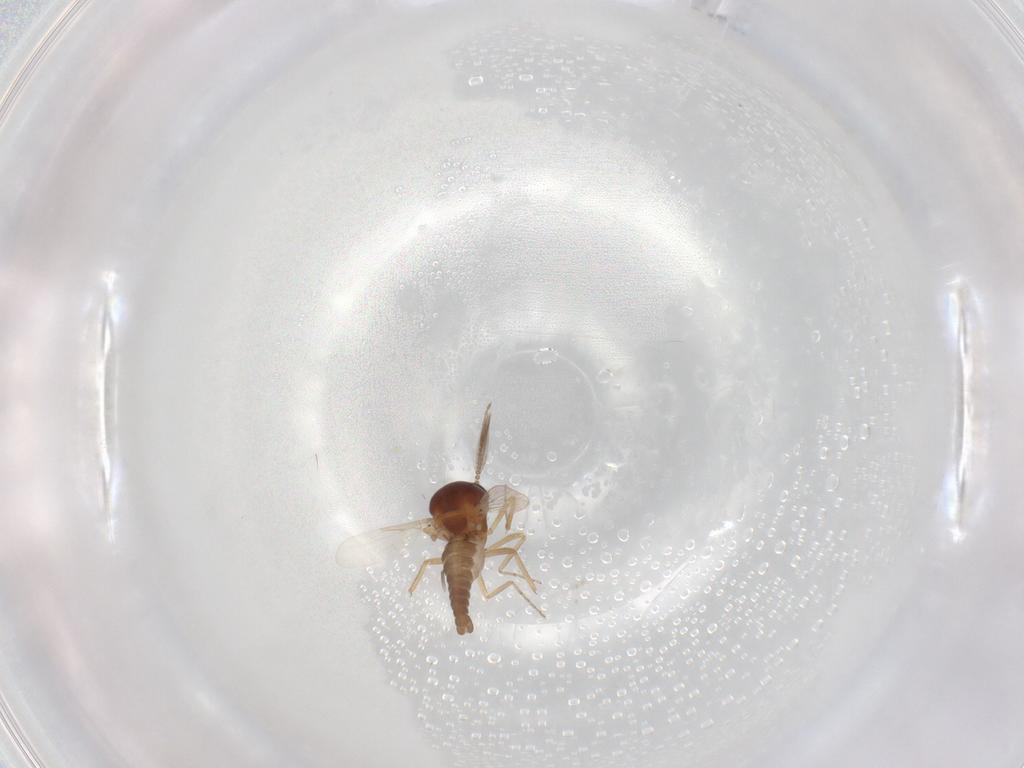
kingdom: Animalia
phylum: Arthropoda
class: Insecta
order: Diptera
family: Ceratopogonidae
